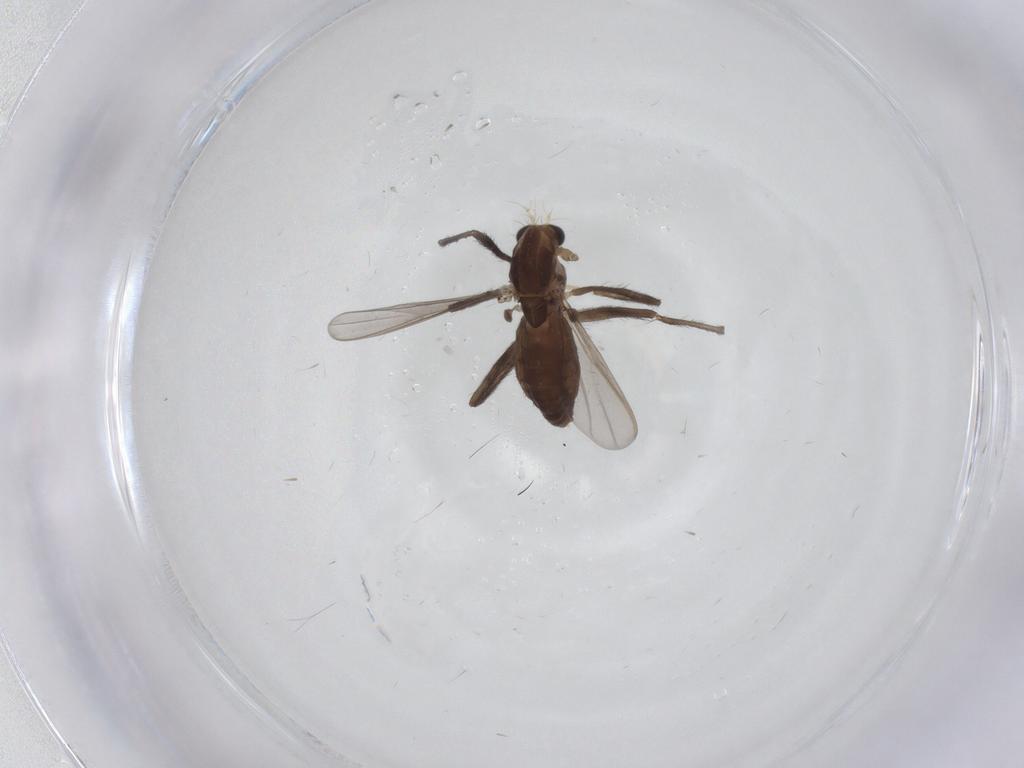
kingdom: Animalia
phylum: Arthropoda
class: Insecta
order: Diptera
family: Chironomidae
